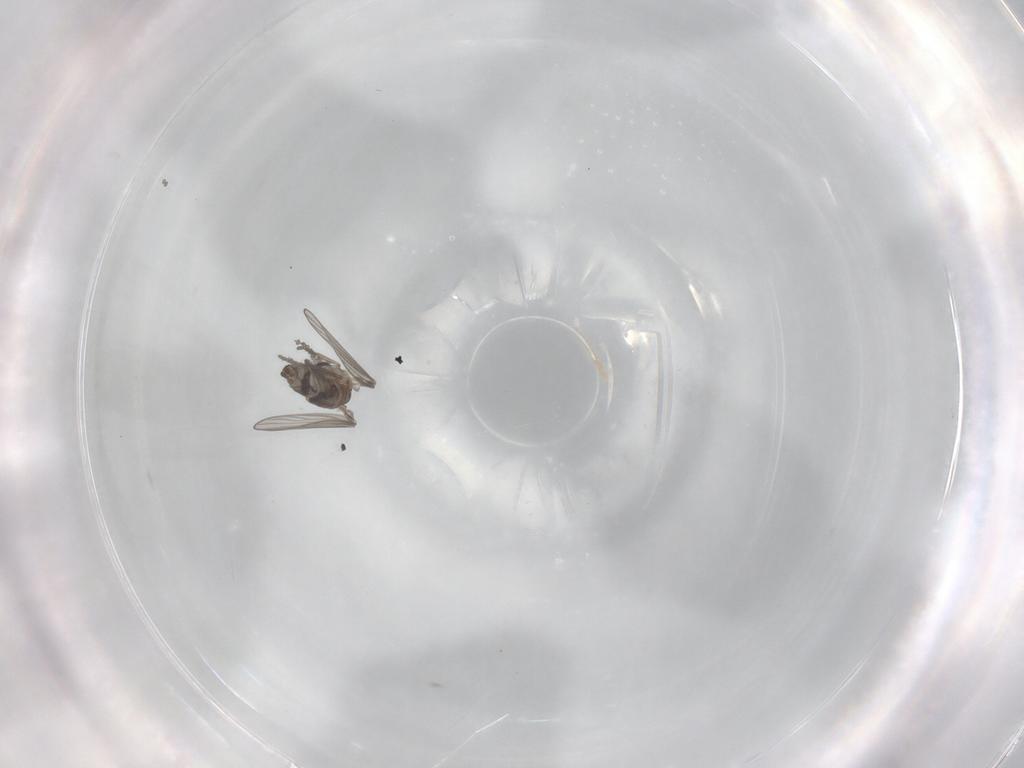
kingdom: Animalia
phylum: Arthropoda
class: Insecta
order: Diptera
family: Psychodidae
